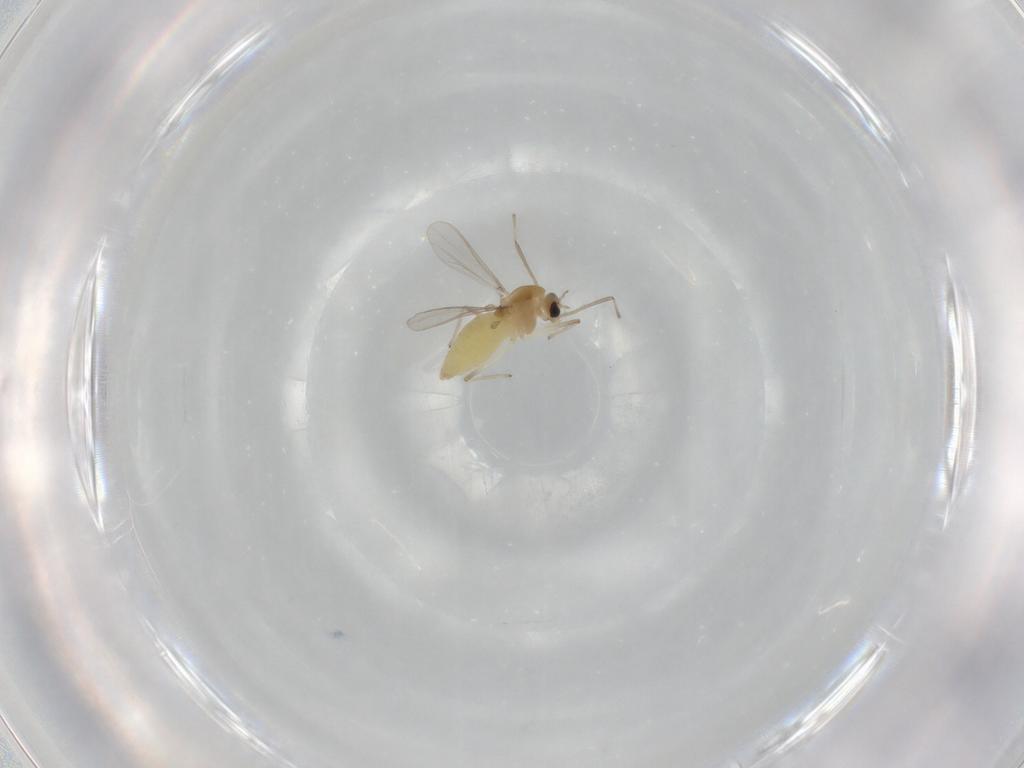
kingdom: Animalia
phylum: Arthropoda
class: Insecta
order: Diptera
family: Chironomidae
